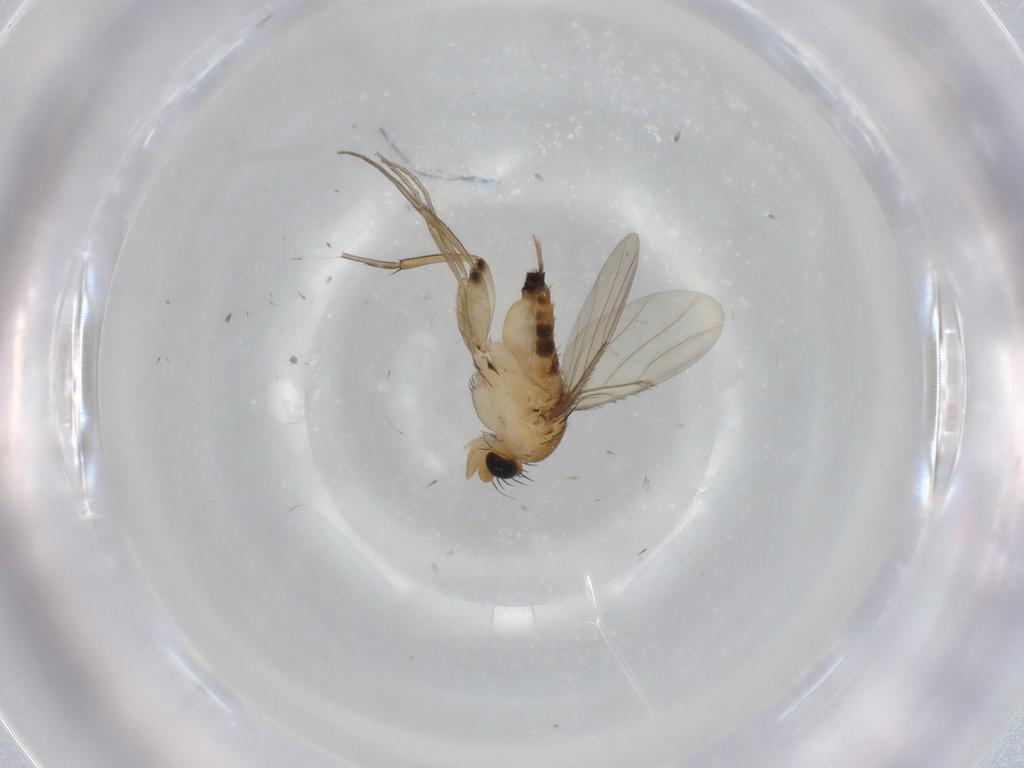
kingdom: Animalia
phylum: Arthropoda
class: Insecta
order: Diptera
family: Phoridae
